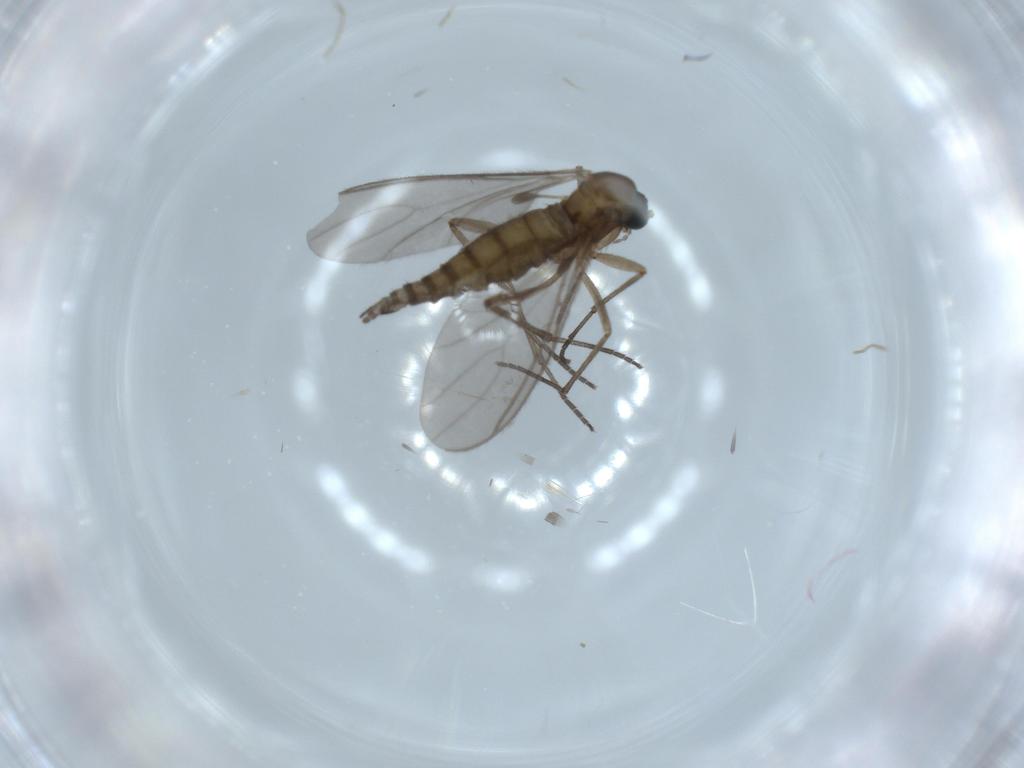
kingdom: Animalia
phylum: Arthropoda
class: Insecta
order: Diptera
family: Sciaridae
